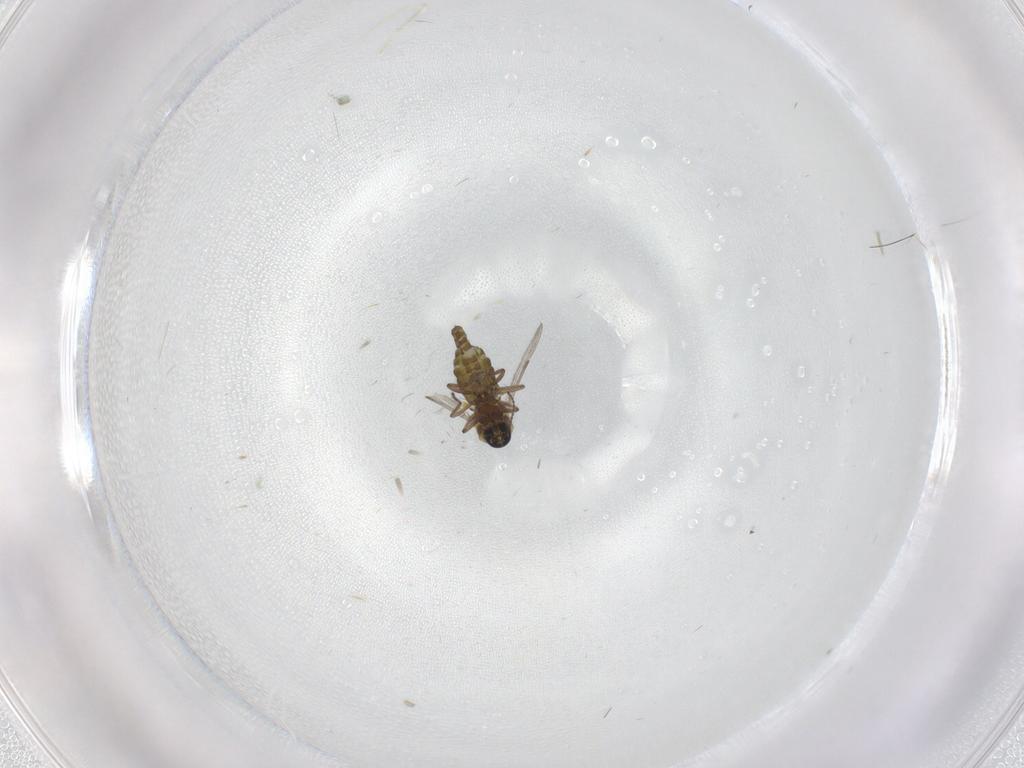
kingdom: Animalia
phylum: Arthropoda
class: Insecta
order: Diptera
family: Ceratopogonidae
